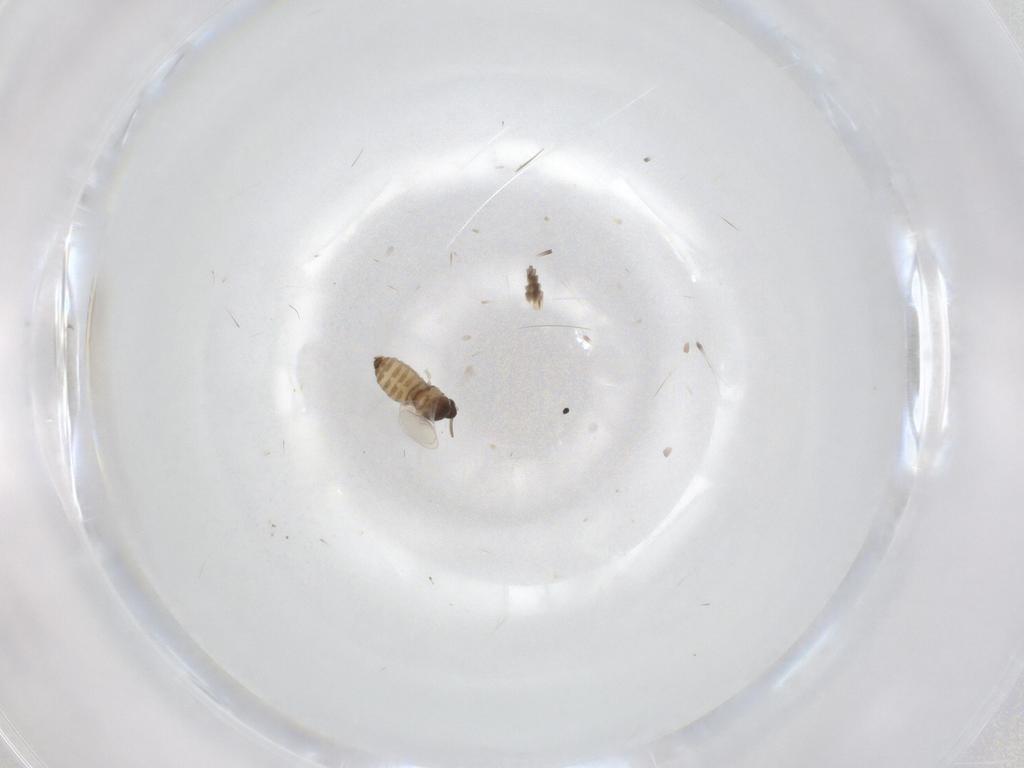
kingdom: Animalia
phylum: Arthropoda
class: Insecta
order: Diptera
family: Cecidomyiidae
